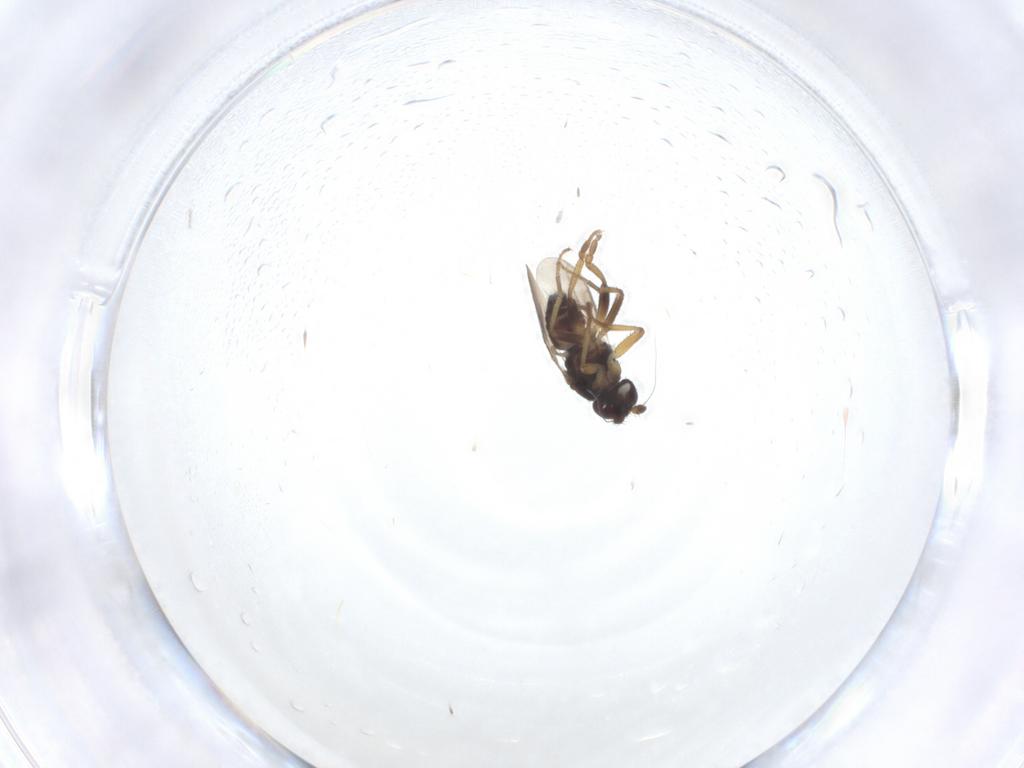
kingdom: Animalia
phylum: Arthropoda
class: Insecta
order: Diptera
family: Sphaeroceridae
